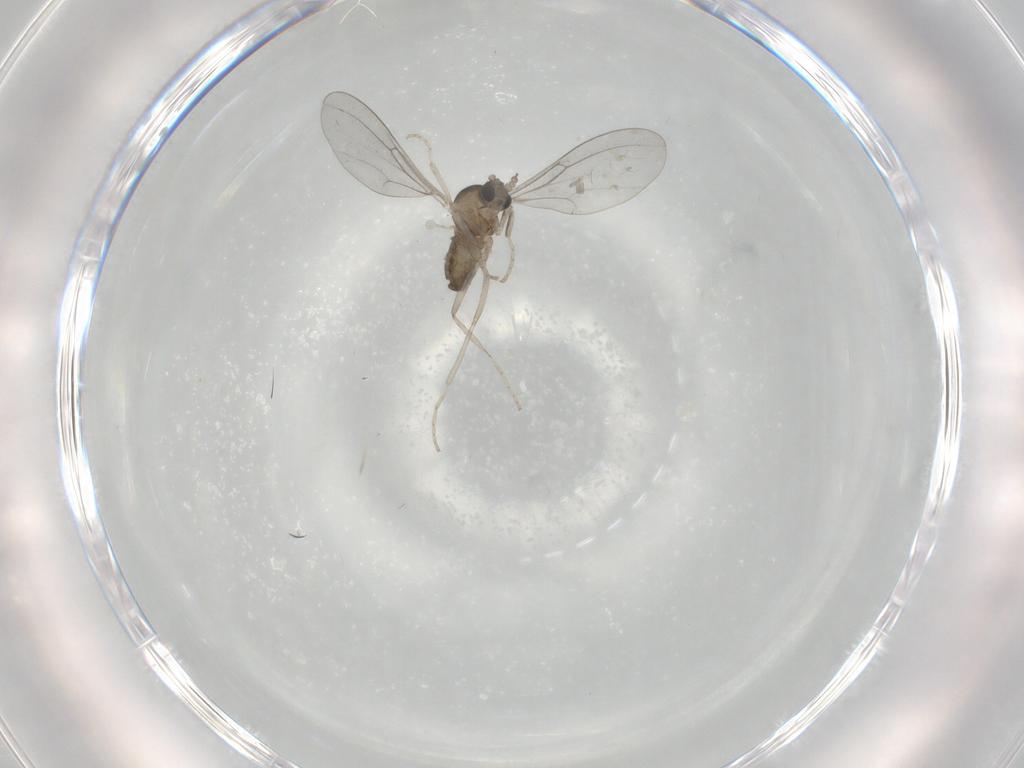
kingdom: Animalia
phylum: Arthropoda
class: Insecta
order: Diptera
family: Cecidomyiidae
